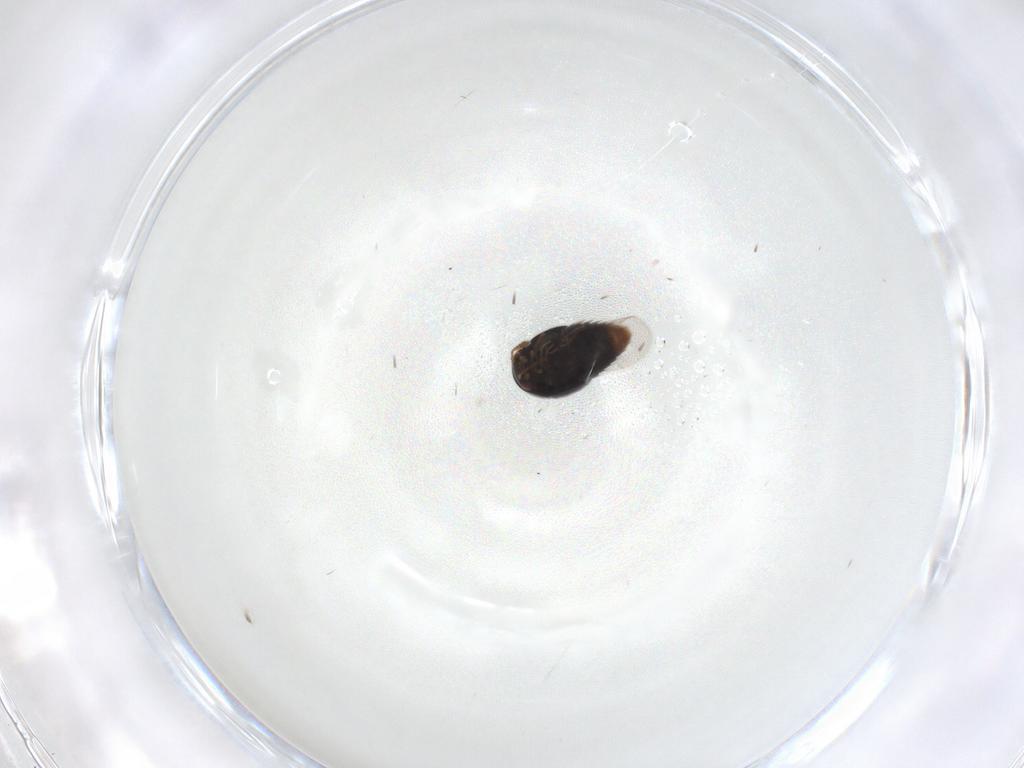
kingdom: Animalia
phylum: Arthropoda
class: Insecta
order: Coleoptera
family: Staphylinidae
